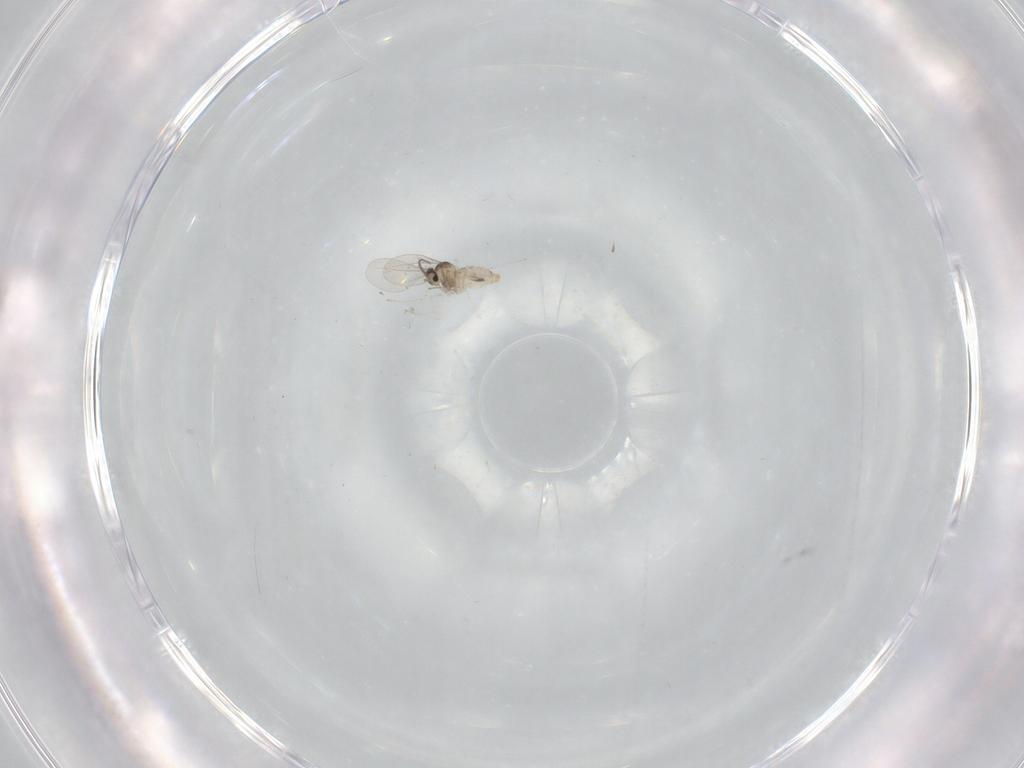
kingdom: Animalia
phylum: Arthropoda
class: Insecta
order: Diptera
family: Cecidomyiidae
